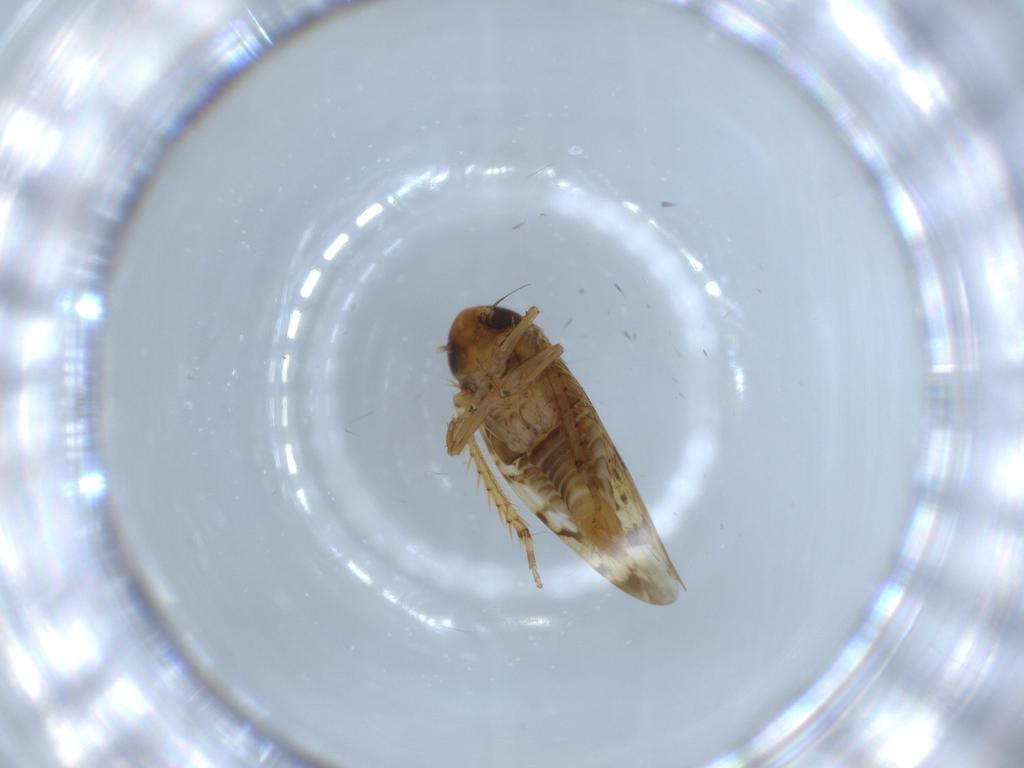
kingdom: Animalia
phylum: Arthropoda
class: Insecta
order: Hemiptera
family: Cicadellidae
